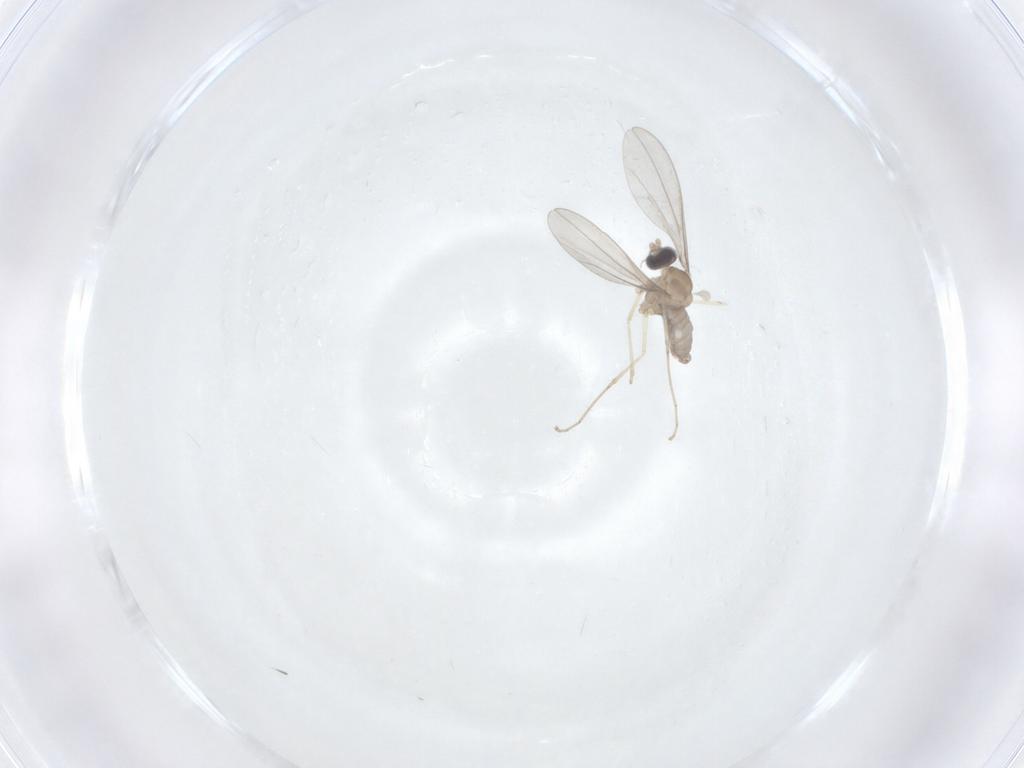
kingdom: Animalia
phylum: Arthropoda
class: Insecta
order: Diptera
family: Cecidomyiidae
